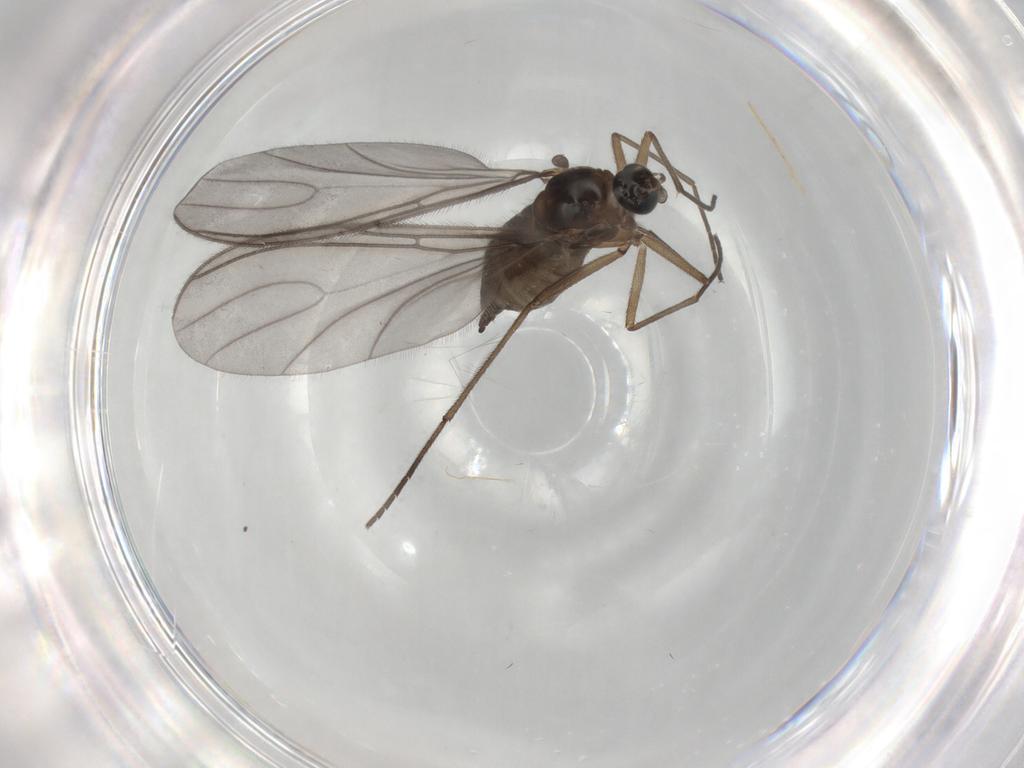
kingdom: Animalia
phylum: Arthropoda
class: Insecta
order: Diptera
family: Sciaridae
